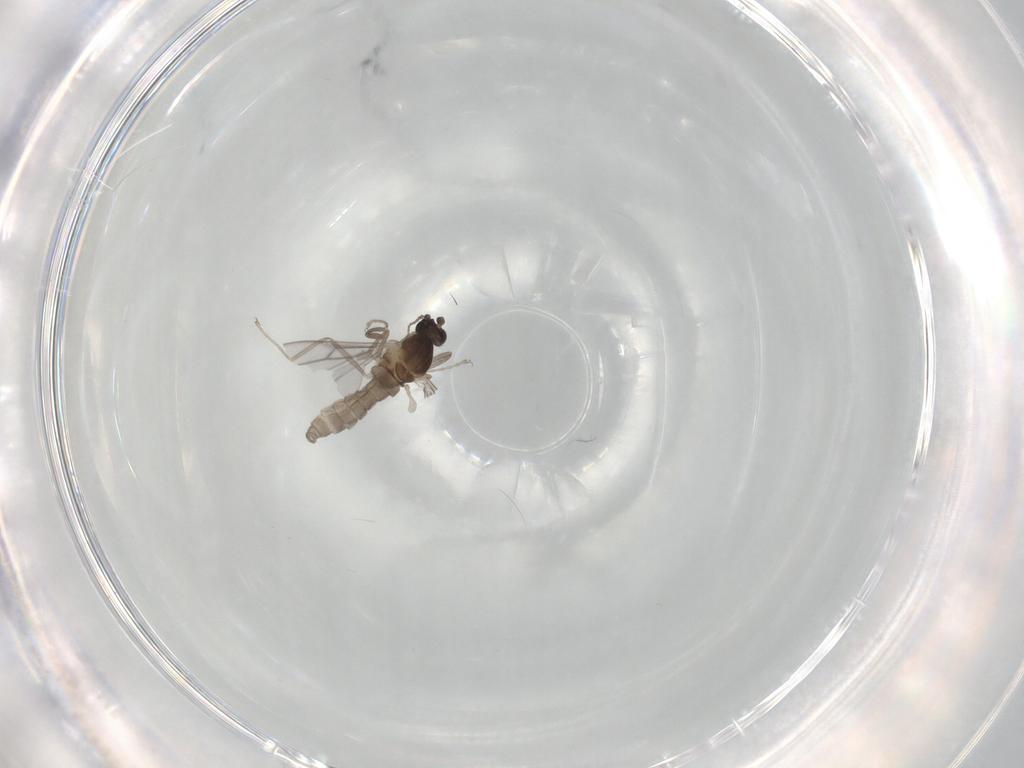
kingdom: Animalia
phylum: Arthropoda
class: Insecta
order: Diptera
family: Cecidomyiidae
